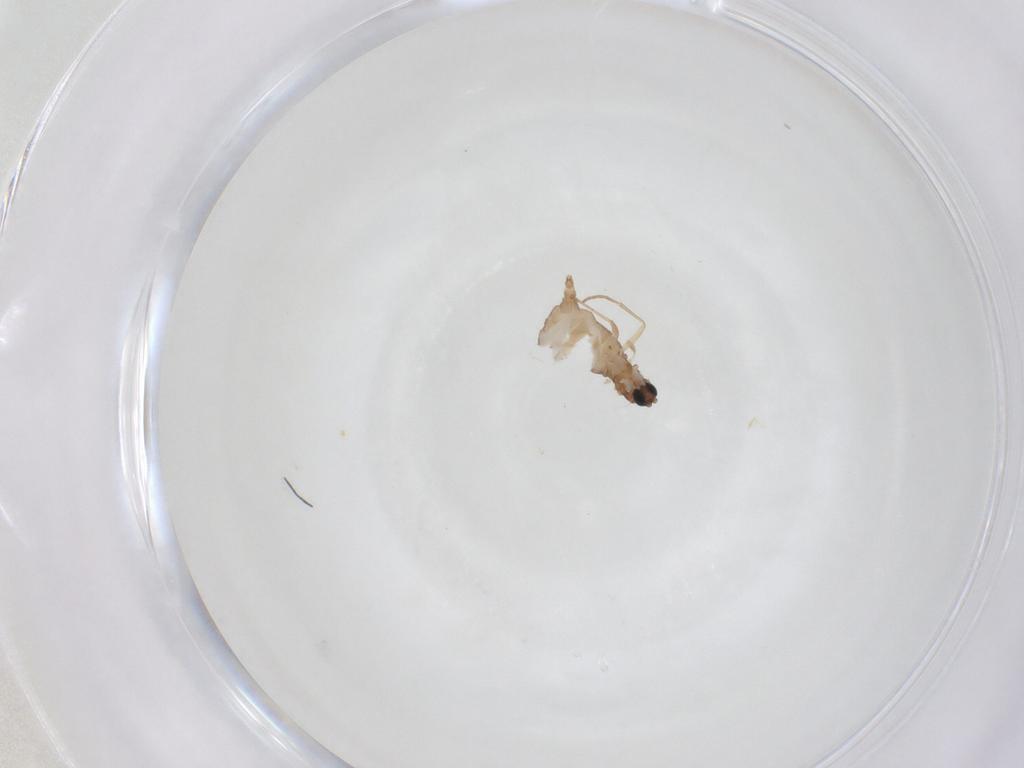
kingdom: Animalia
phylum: Arthropoda
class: Insecta
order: Diptera
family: Sciaridae
